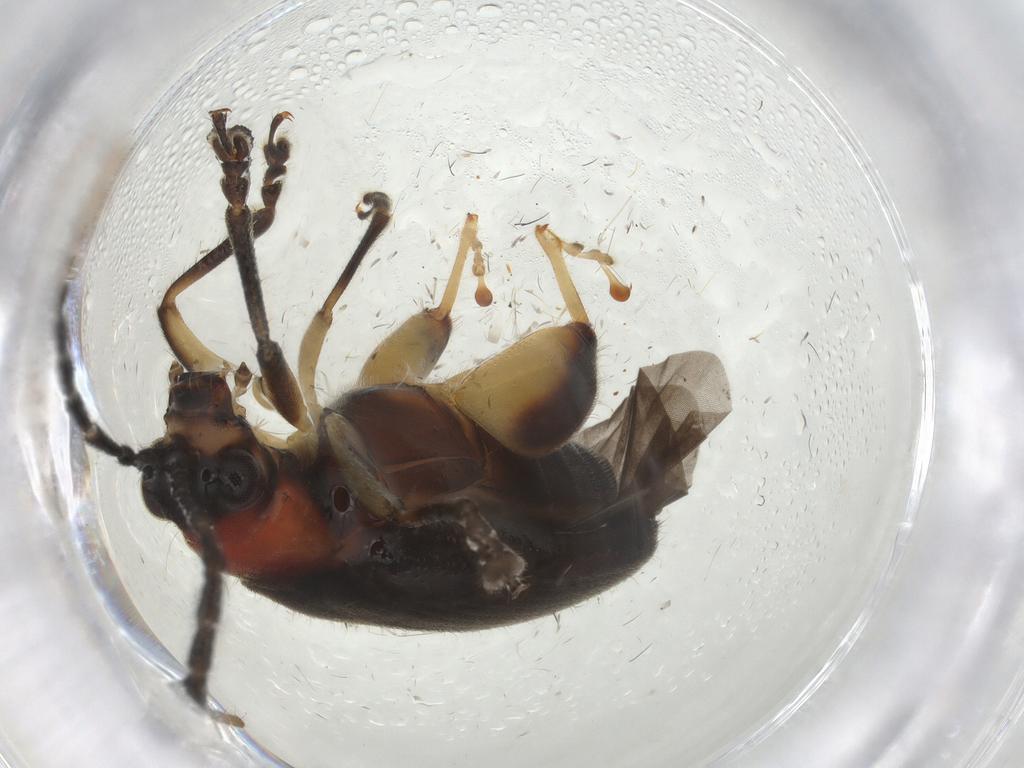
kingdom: Animalia
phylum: Arthropoda
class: Insecta
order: Coleoptera
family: Chrysomelidae
